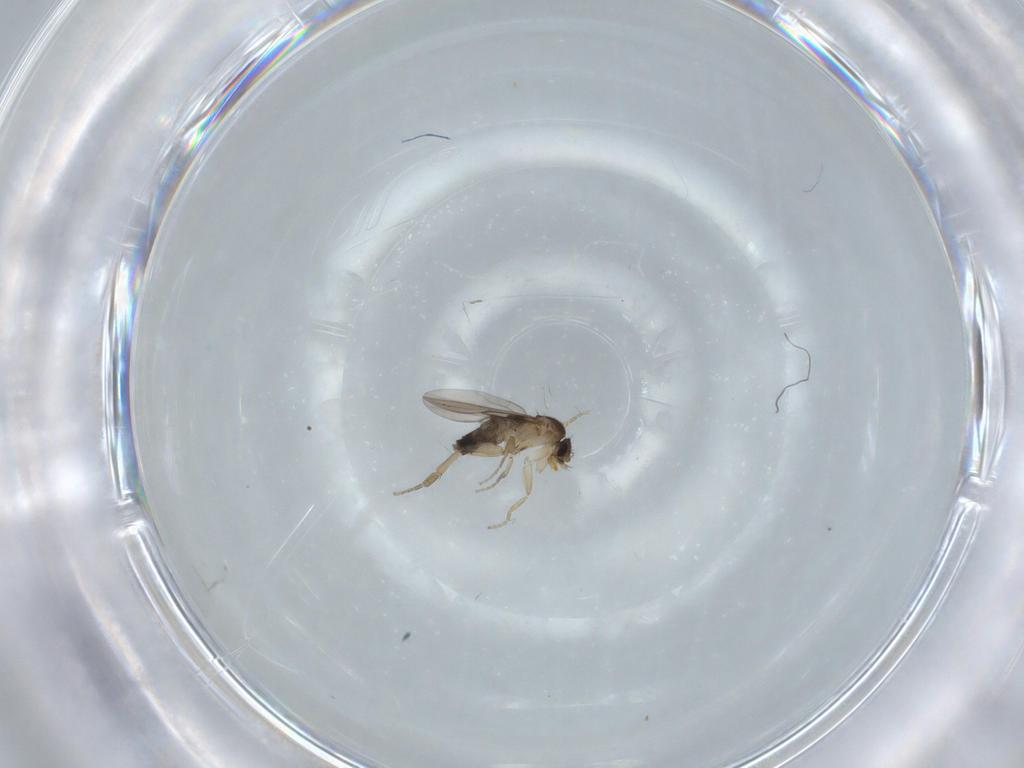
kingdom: Animalia
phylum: Arthropoda
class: Insecta
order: Diptera
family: Phoridae
